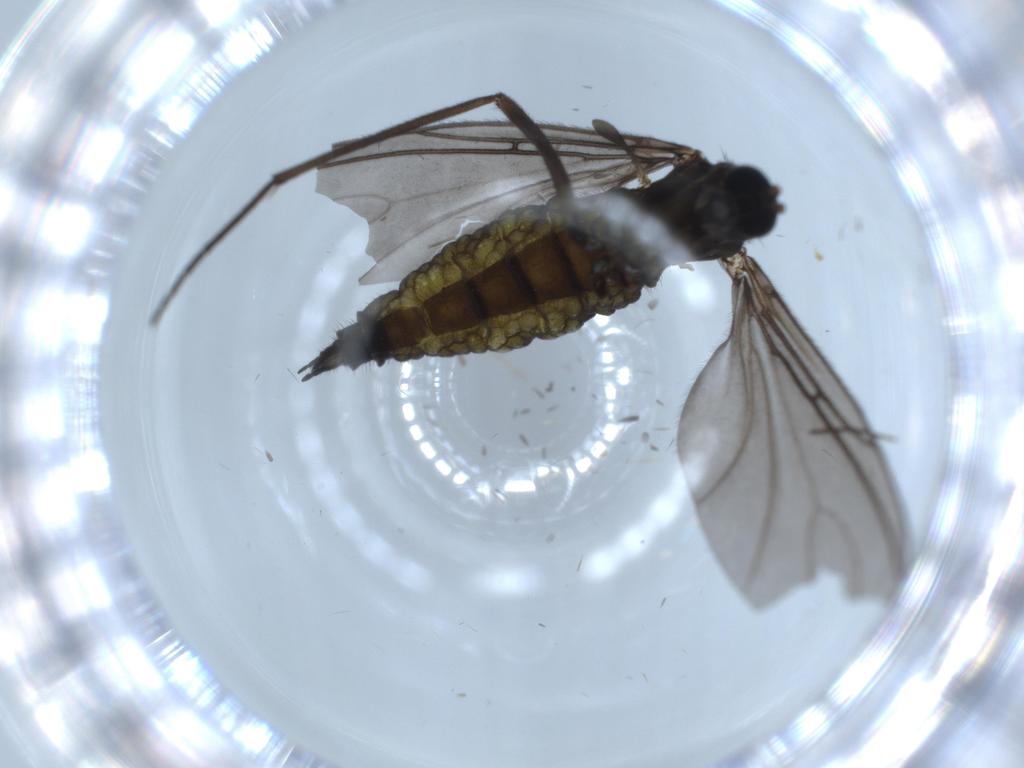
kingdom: Animalia
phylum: Arthropoda
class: Insecta
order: Diptera
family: Sciaridae
